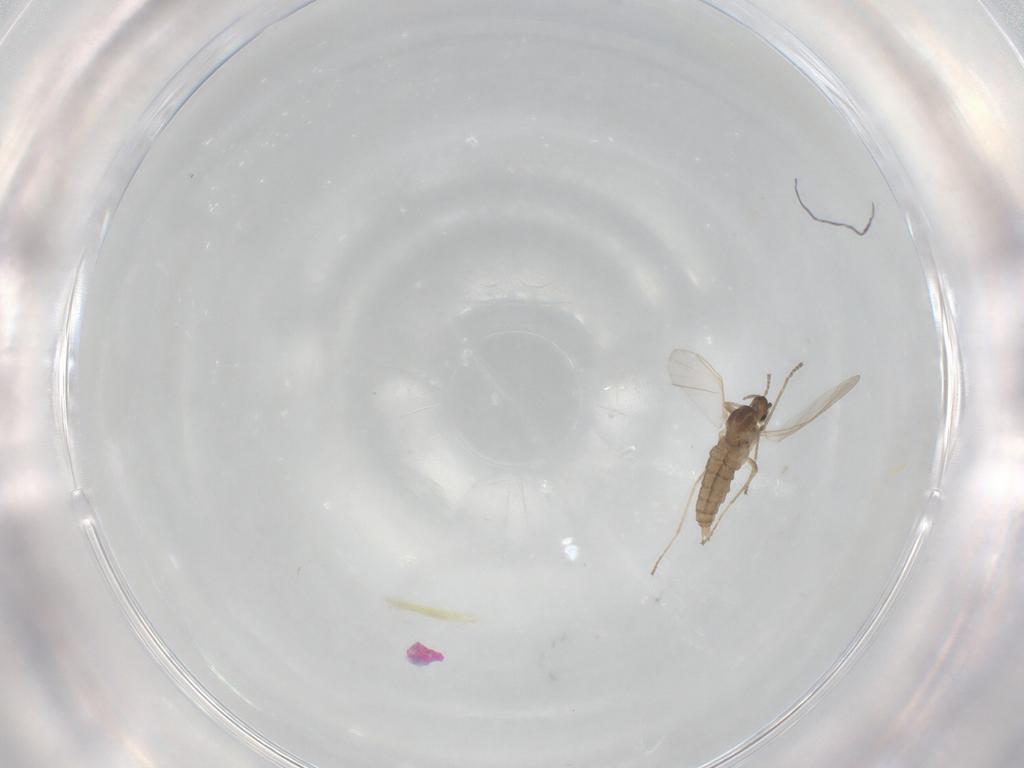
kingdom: Animalia
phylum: Arthropoda
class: Insecta
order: Diptera
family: Cecidomyiidae
